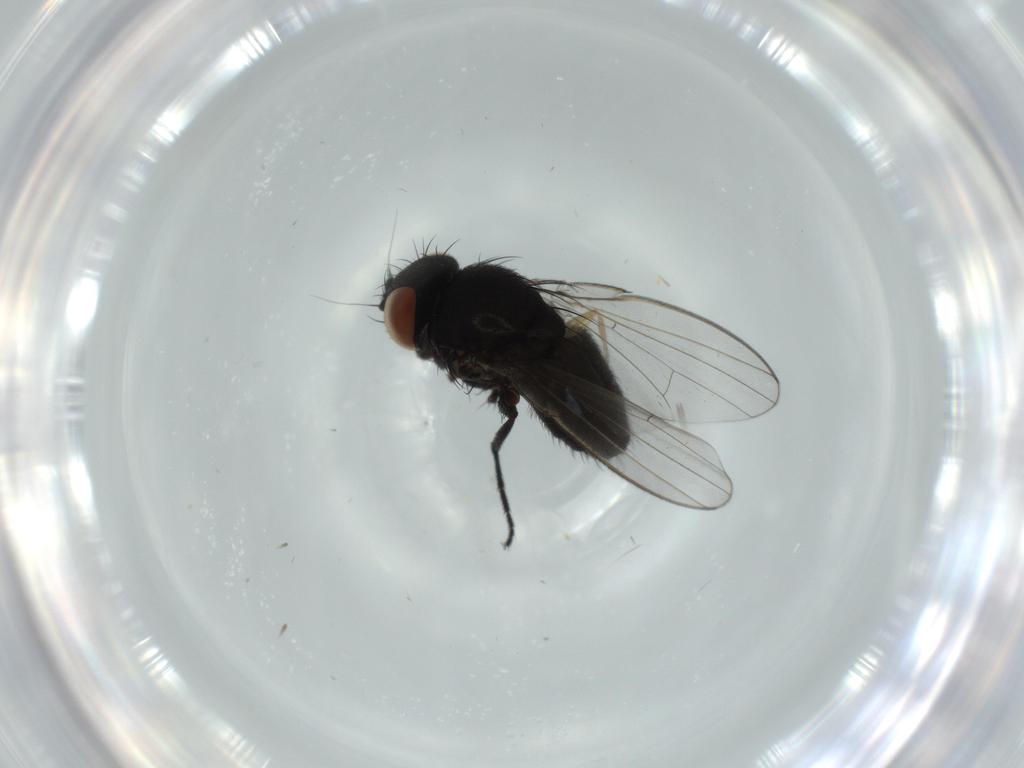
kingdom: Animalia
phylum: Arthropoda
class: Insecta
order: Diptera
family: Milichiidae
